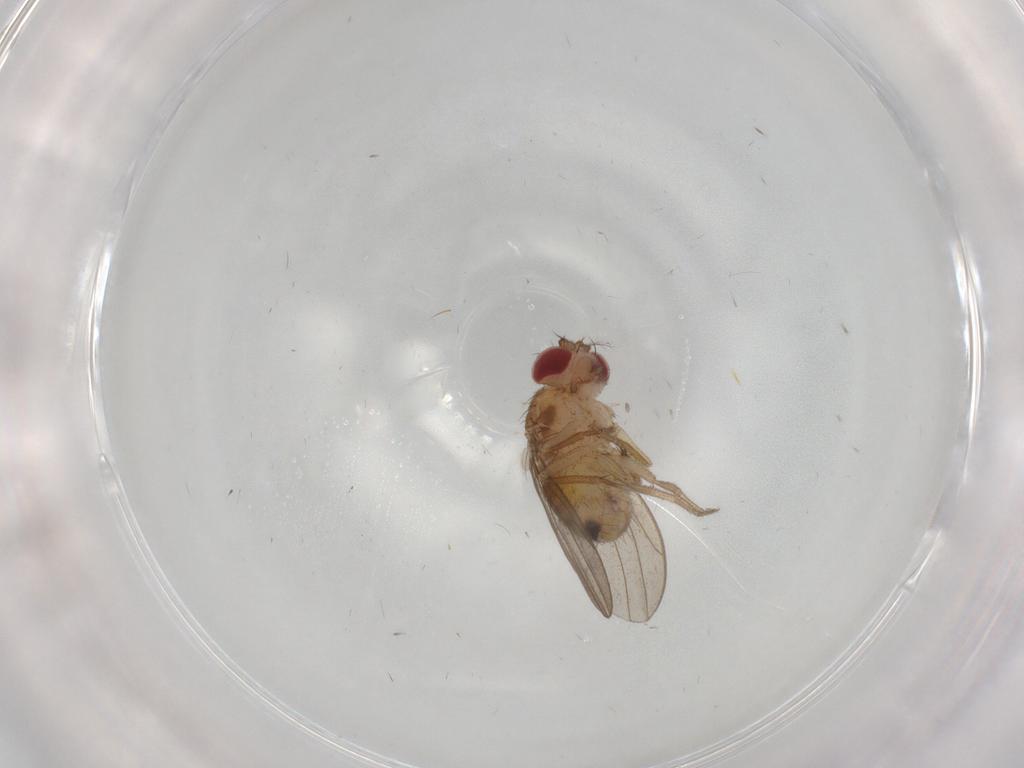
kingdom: Animalia
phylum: Arthropoda
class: Insecta
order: Diptera
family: Drosophilidae
